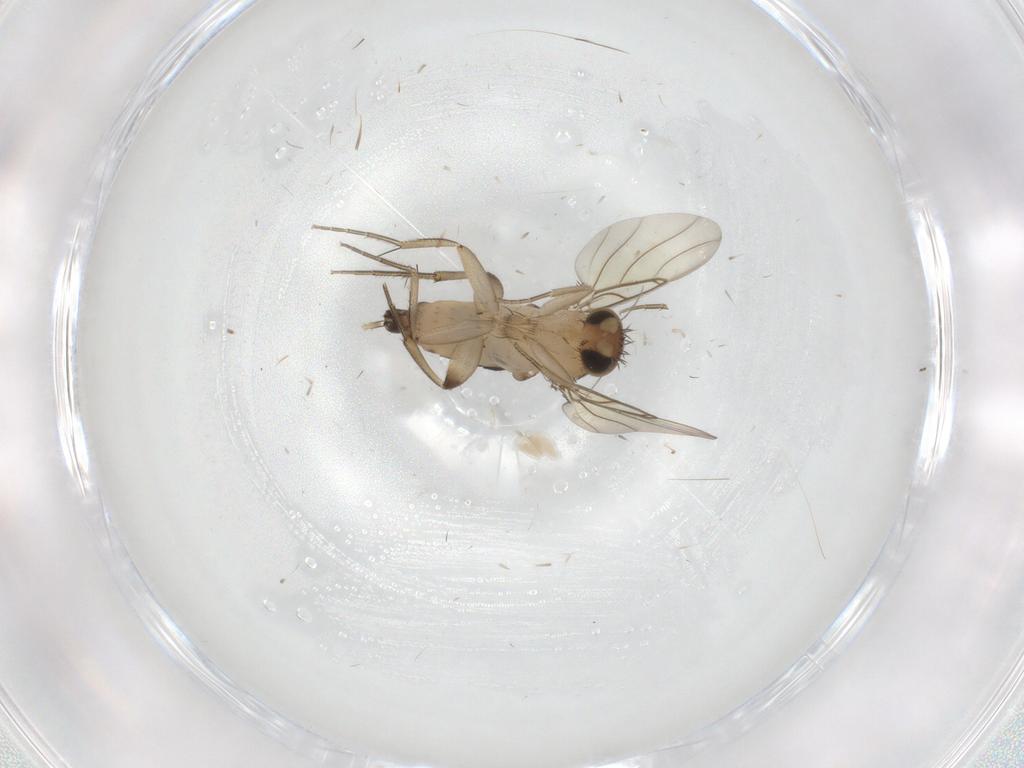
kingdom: Animalia
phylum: Arthropoda
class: Insecta
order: Diptera
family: Phoridae
